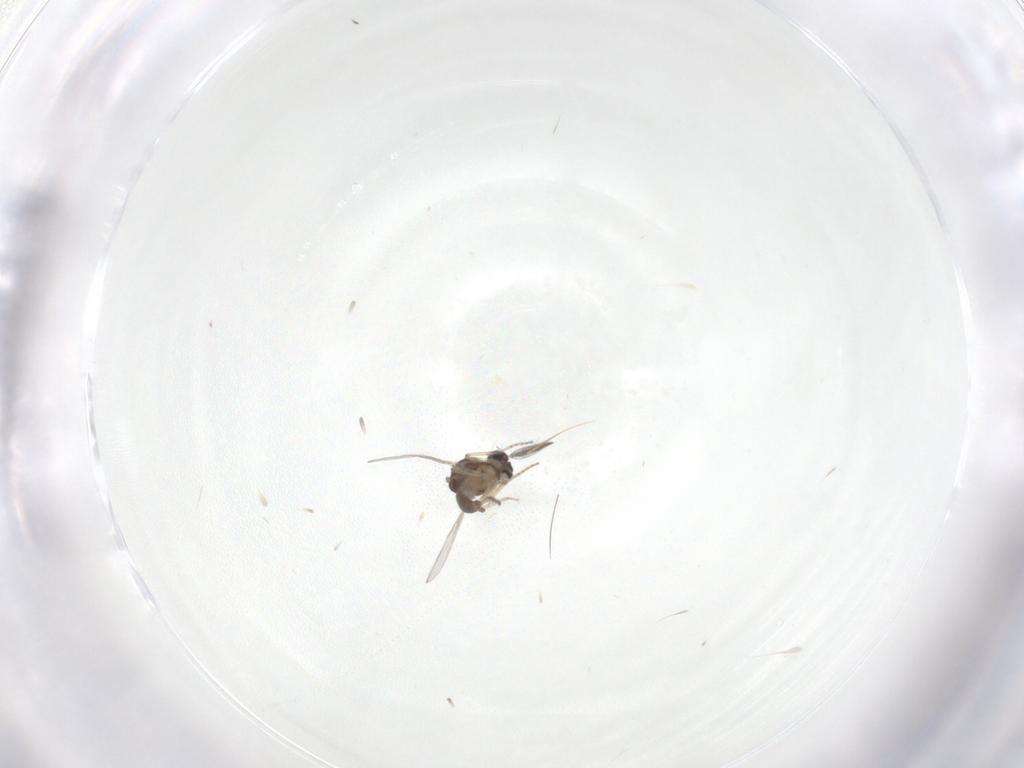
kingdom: Animalia
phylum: Arthropoda
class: Insecta
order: Diptera
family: Ceratopogonidae
